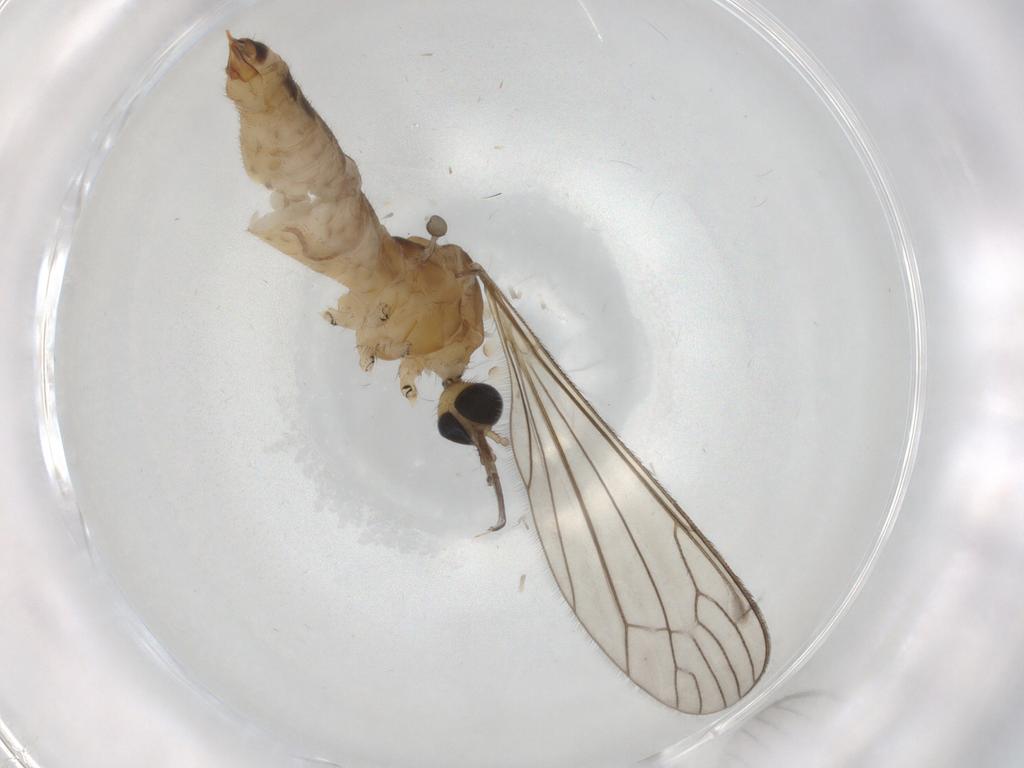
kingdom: Animalia
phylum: Arthropoda
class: Insecta
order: Diptera
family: Limoniidae
